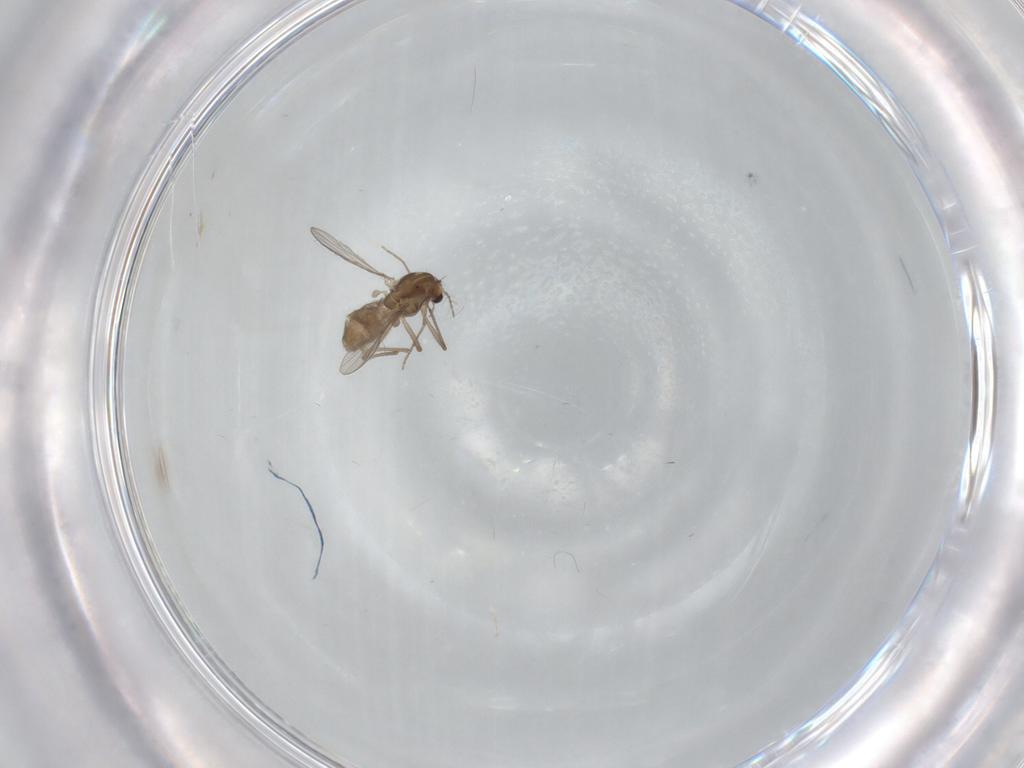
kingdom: Animalia
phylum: Arthropoda
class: Insecta
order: Diptera
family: Chironomidae
